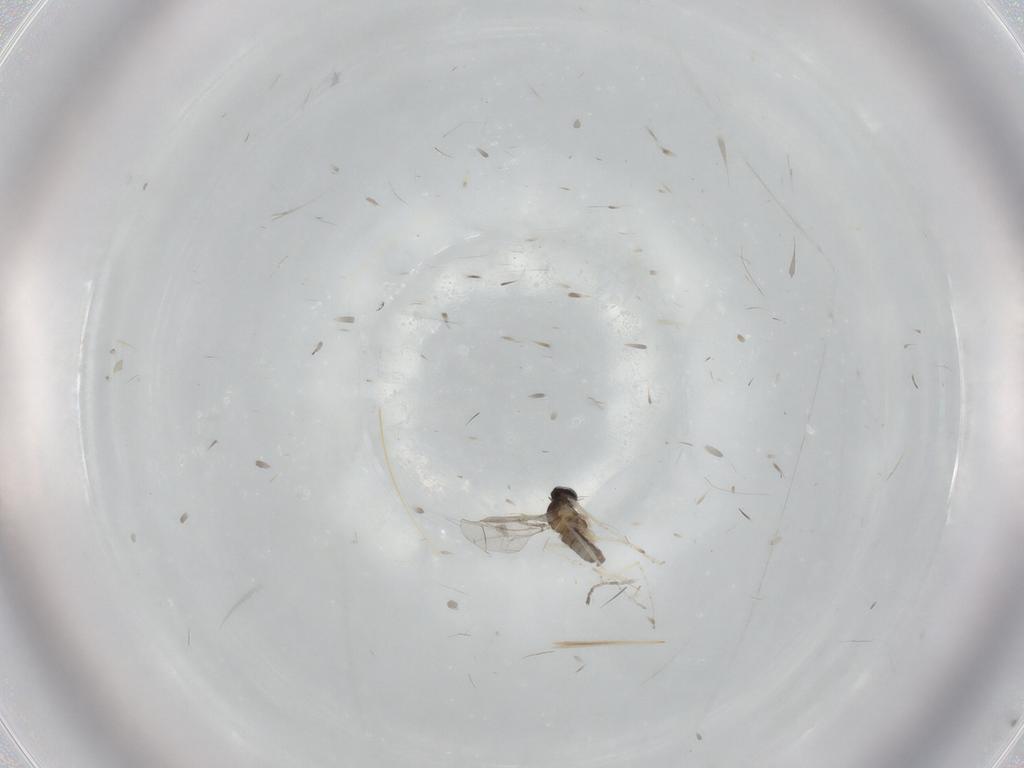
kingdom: Animalia
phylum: Arthropoda
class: Insecta
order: Diptera
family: Cecidomyiidae
